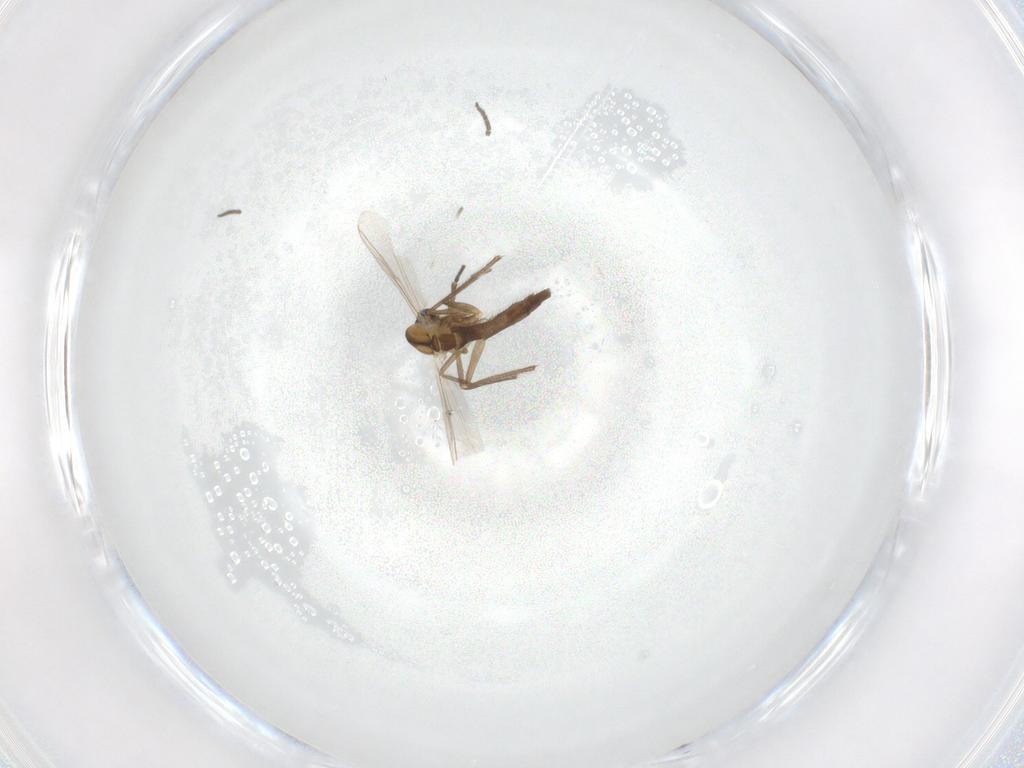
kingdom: Animalia
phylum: Arthropoda
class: Insecta
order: Diptera
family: Chironomidae
